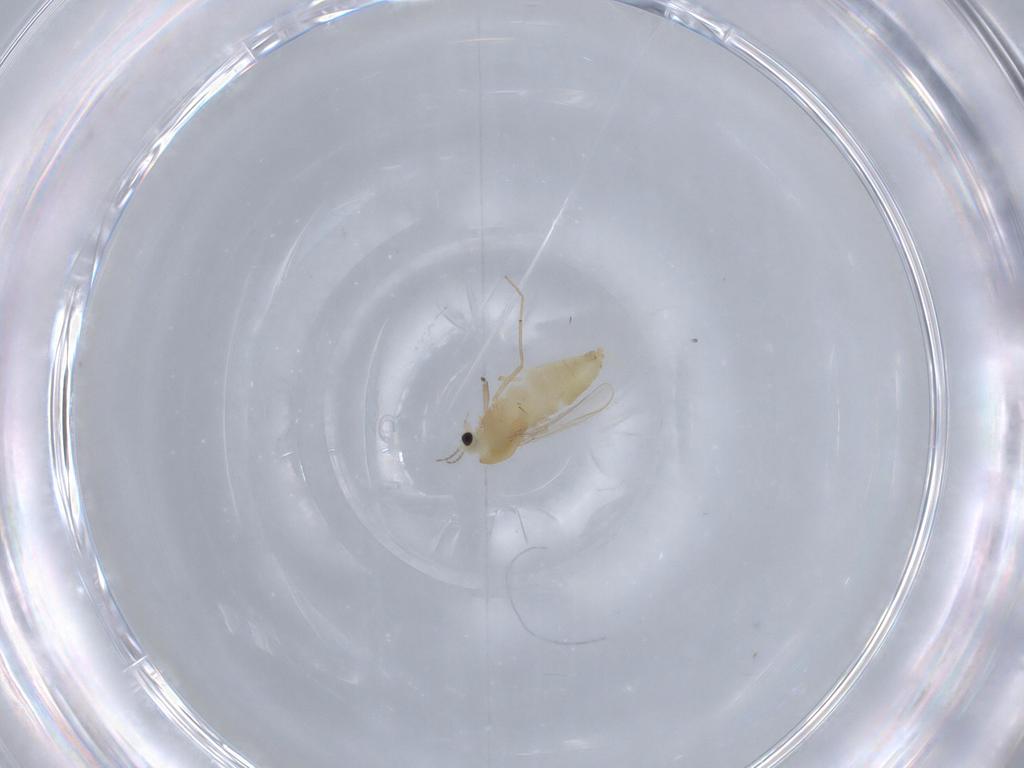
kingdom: Animalia
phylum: Arthropoda
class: Insecta
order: Diptera
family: Chironomidae
